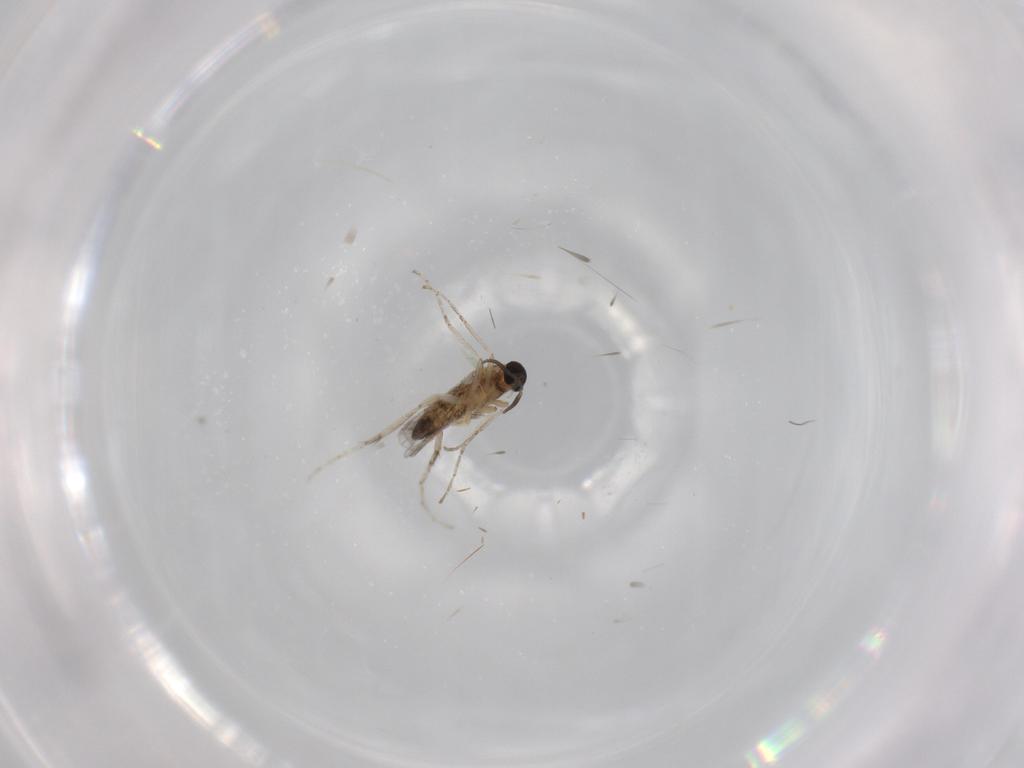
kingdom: Animalia
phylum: Arthropoda
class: Insecta
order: Diptera
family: Cecidomyiidae
